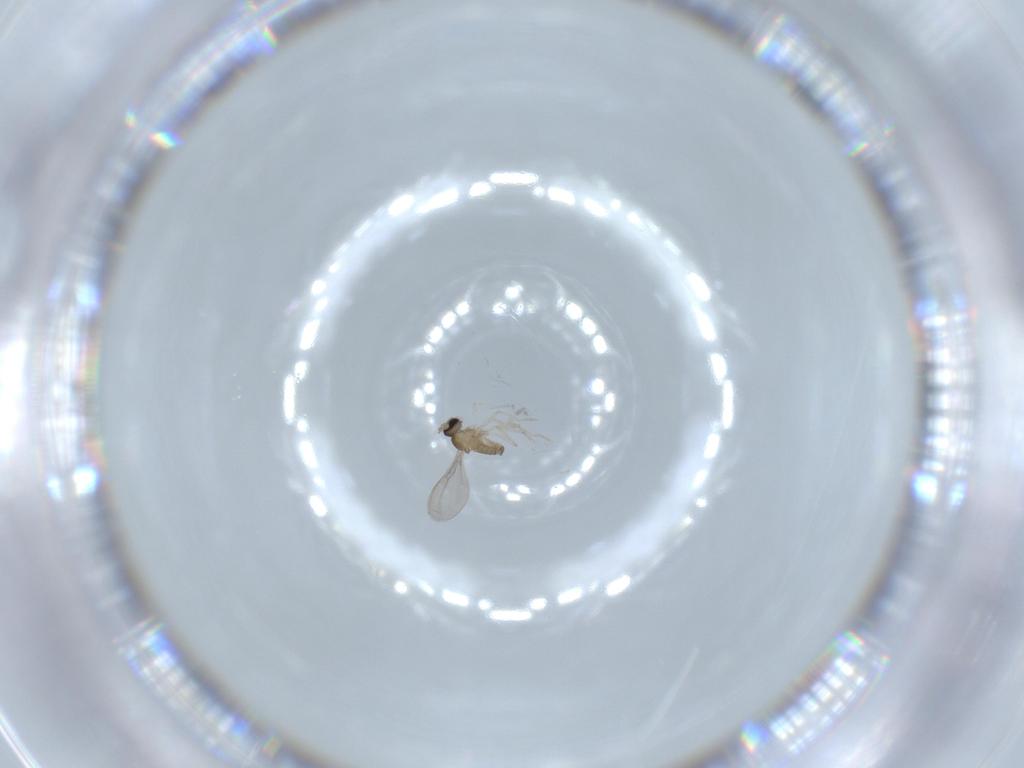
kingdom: Animalia
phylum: Arthropoda
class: Insecta
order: Diptera
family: Cecidomyiidae
